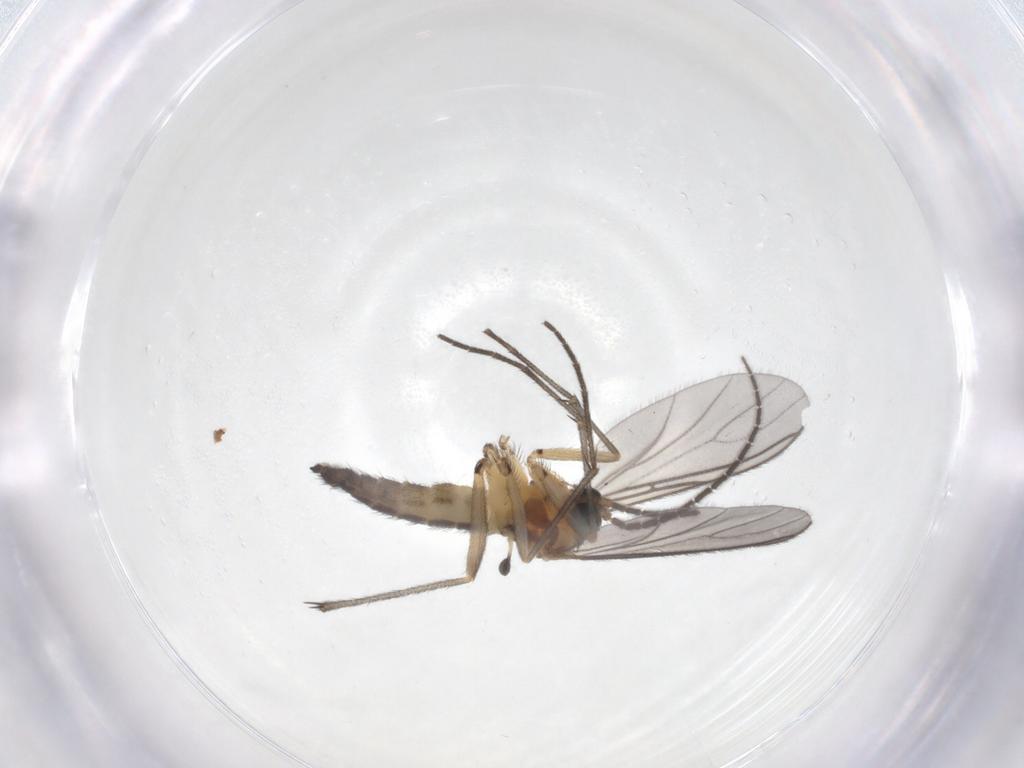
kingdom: Animalia
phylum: Arthropoda
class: Insecta
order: Diptera
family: Sciaridae
